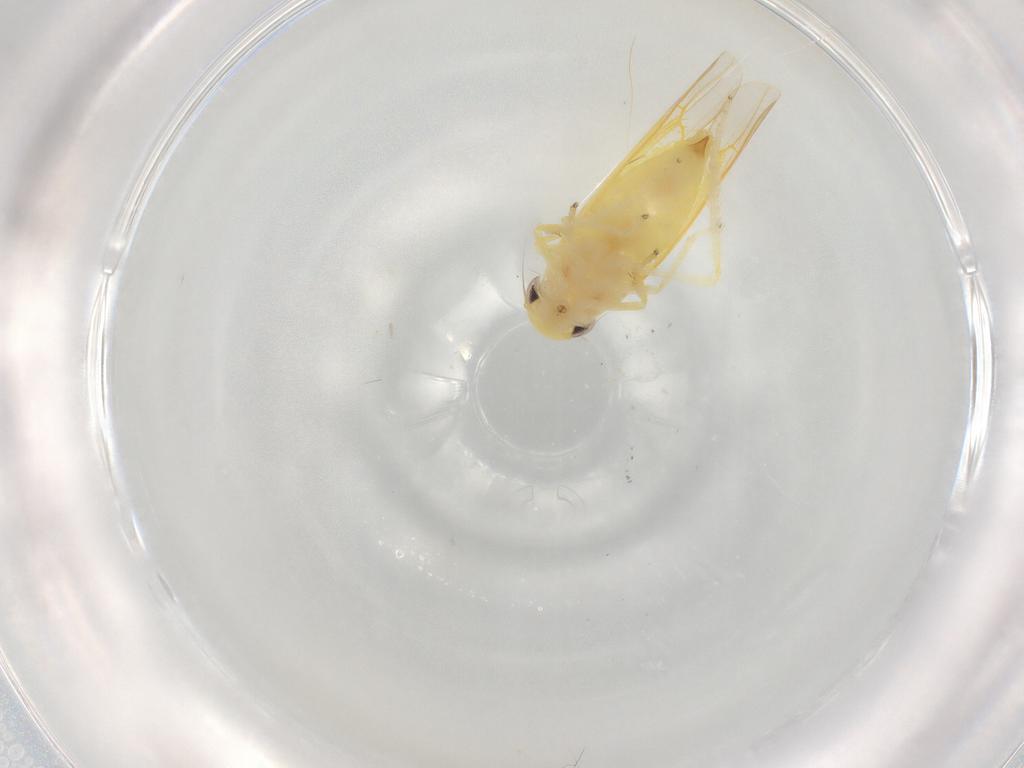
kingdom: Animalia
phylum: Arthropoda
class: Insecta
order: Hemiptera
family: Cicadellidae
